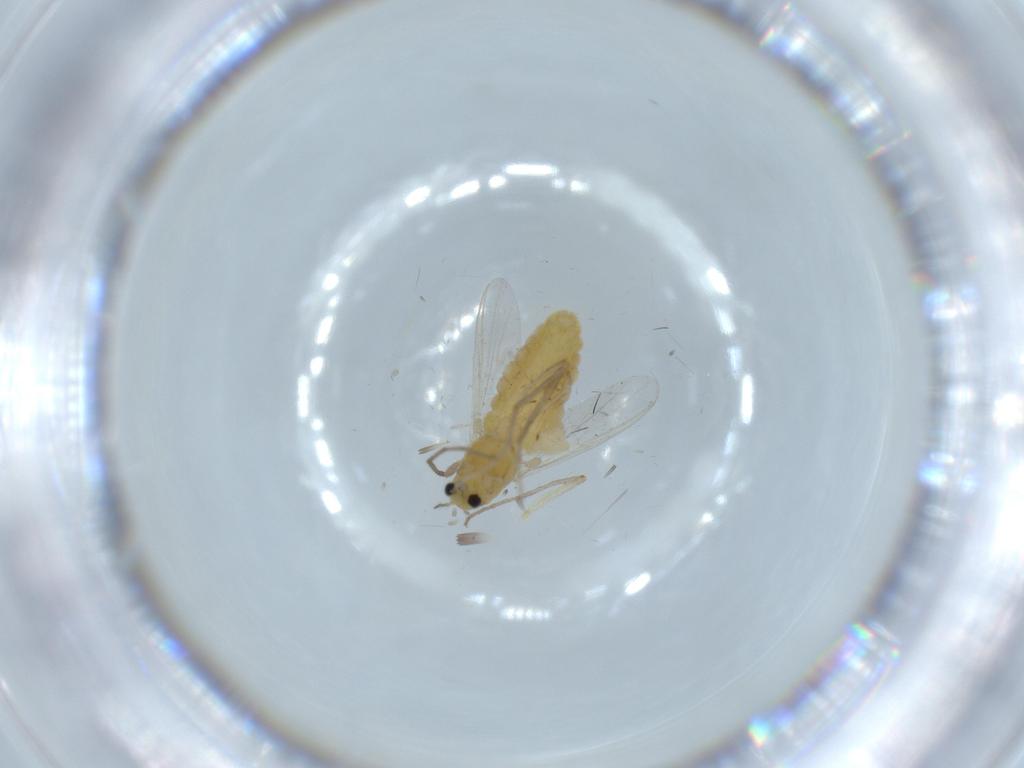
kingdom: Animalia
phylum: Arthropoda
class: Insecta
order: Diptera
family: Chironomidae
